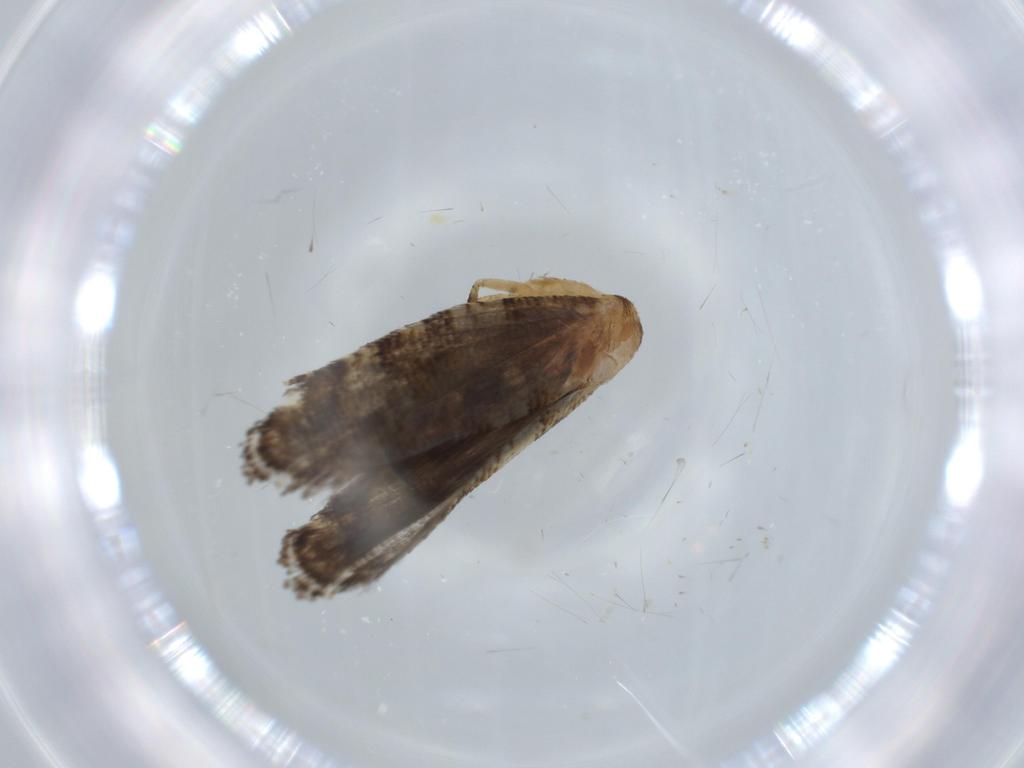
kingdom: Animalia
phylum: Arthropoda
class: Insecta
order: Lepidoptera
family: Glyphipterigidae
